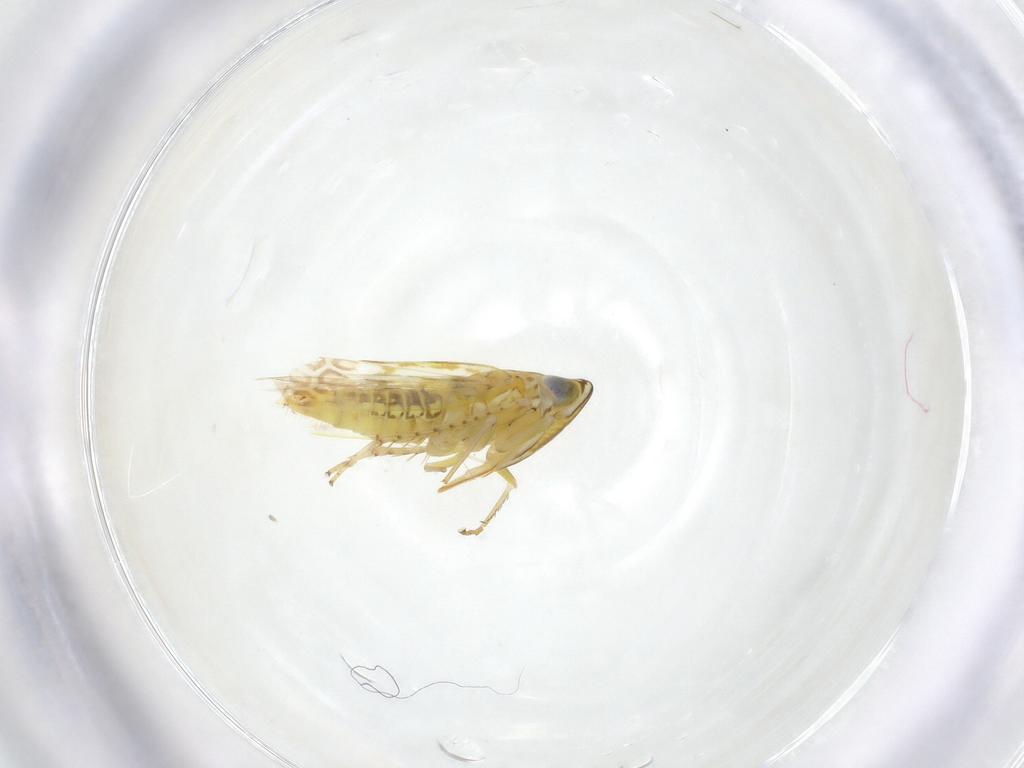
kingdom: Animalia
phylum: Arthropoda
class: Insecta
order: Hemiptera
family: Cicadellidae
